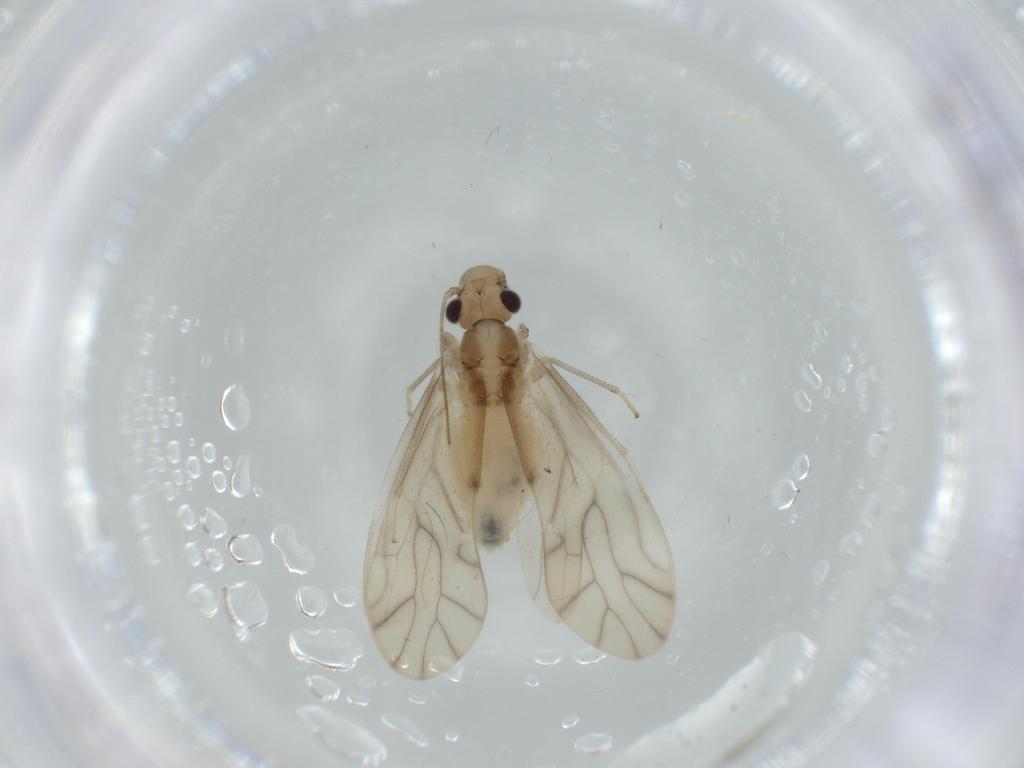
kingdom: Animalia
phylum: Arthropoda
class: Insecta
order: Psocodea
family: Caeciliusidae
